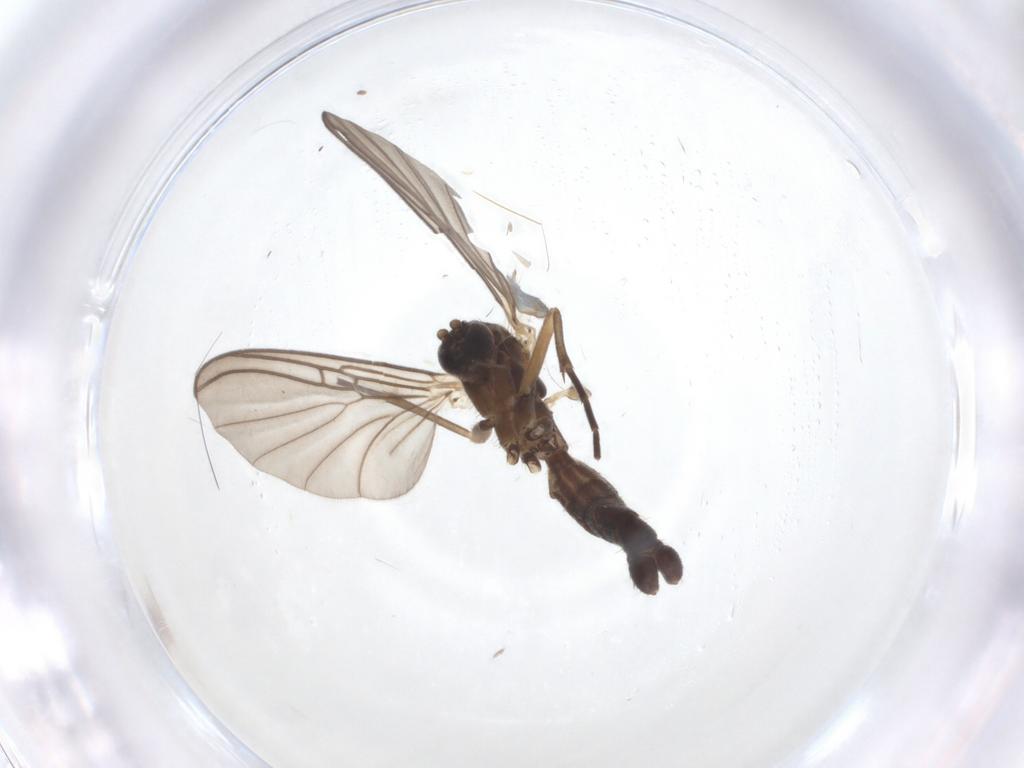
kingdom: Animalia
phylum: Arthropoda
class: Insecta
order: Diptera
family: Mycetophilidae
